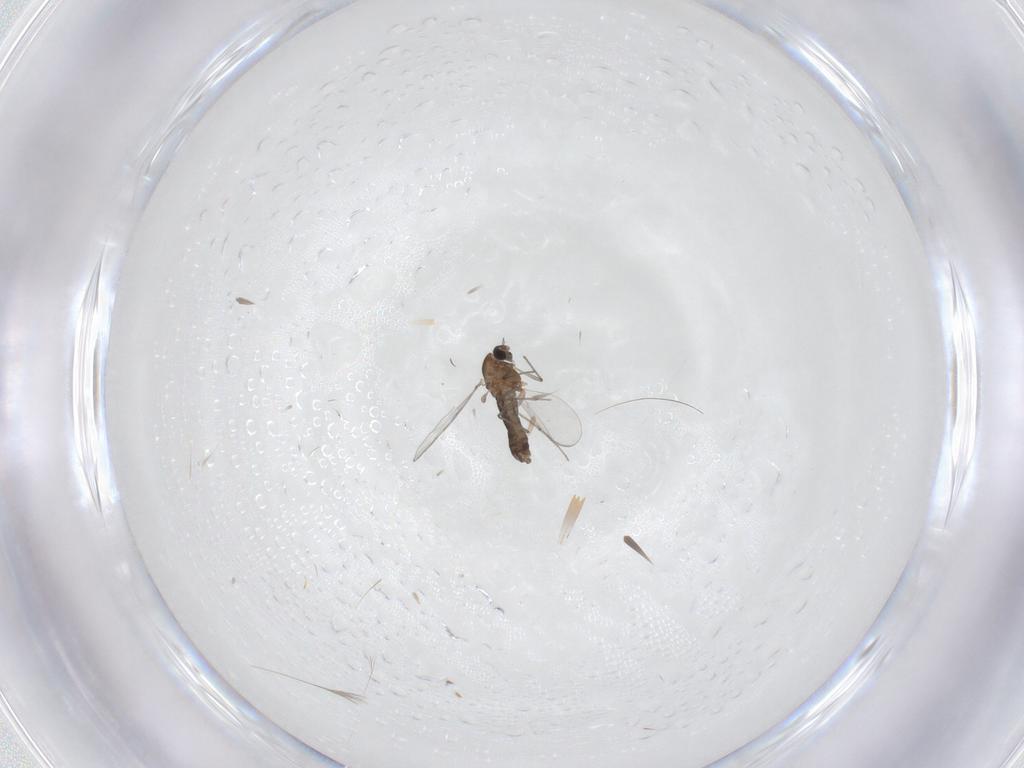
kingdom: Animalia
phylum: Arthropoda
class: Insecta
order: Diptera
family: Chironomidae
